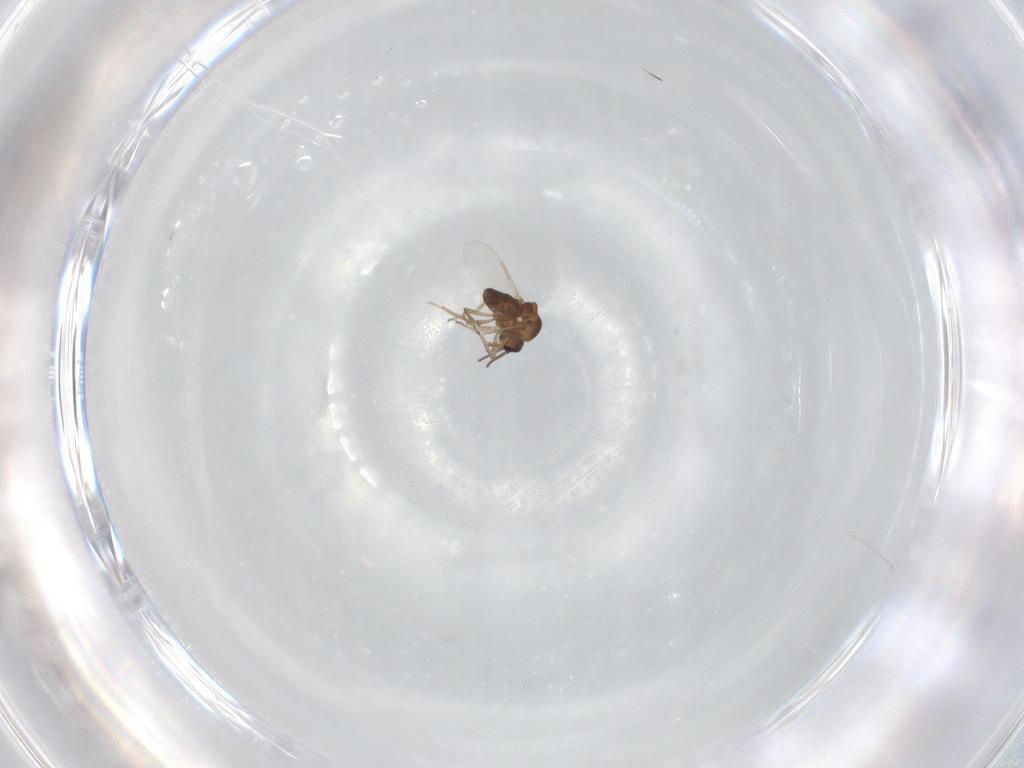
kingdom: Animalia
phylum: Arthropoda
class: Insecta
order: Diptera
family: Ceratopogonidae
